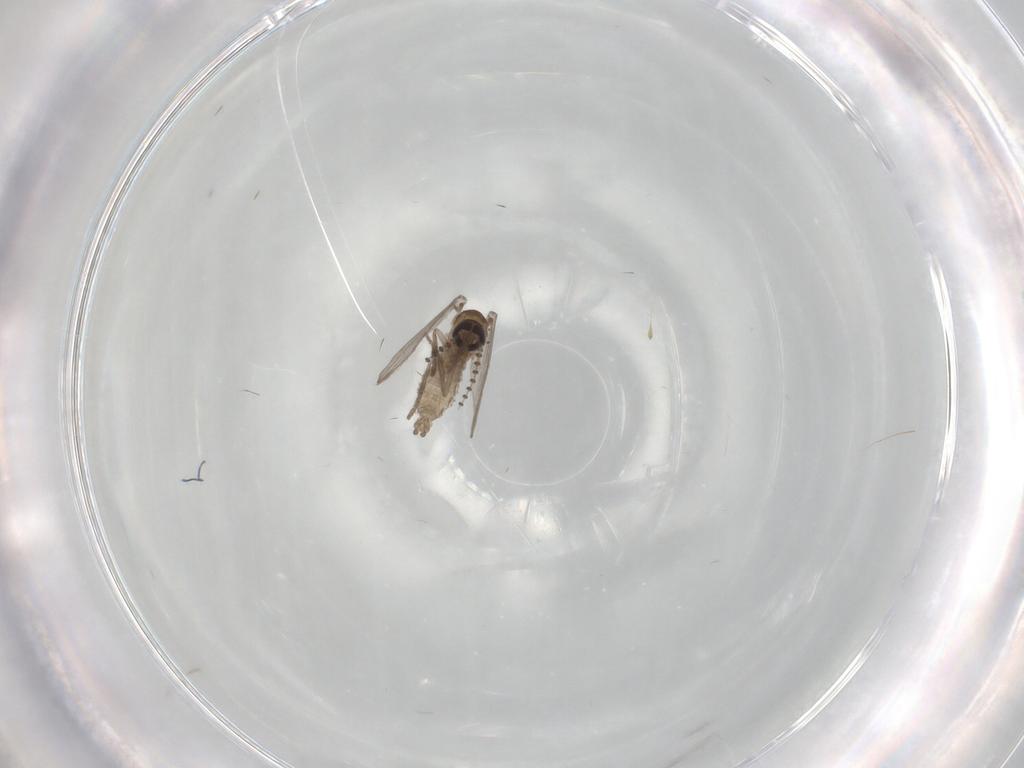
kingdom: Animalia
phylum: Arthropoda
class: Insecta
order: Diptera
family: Psychodidae
